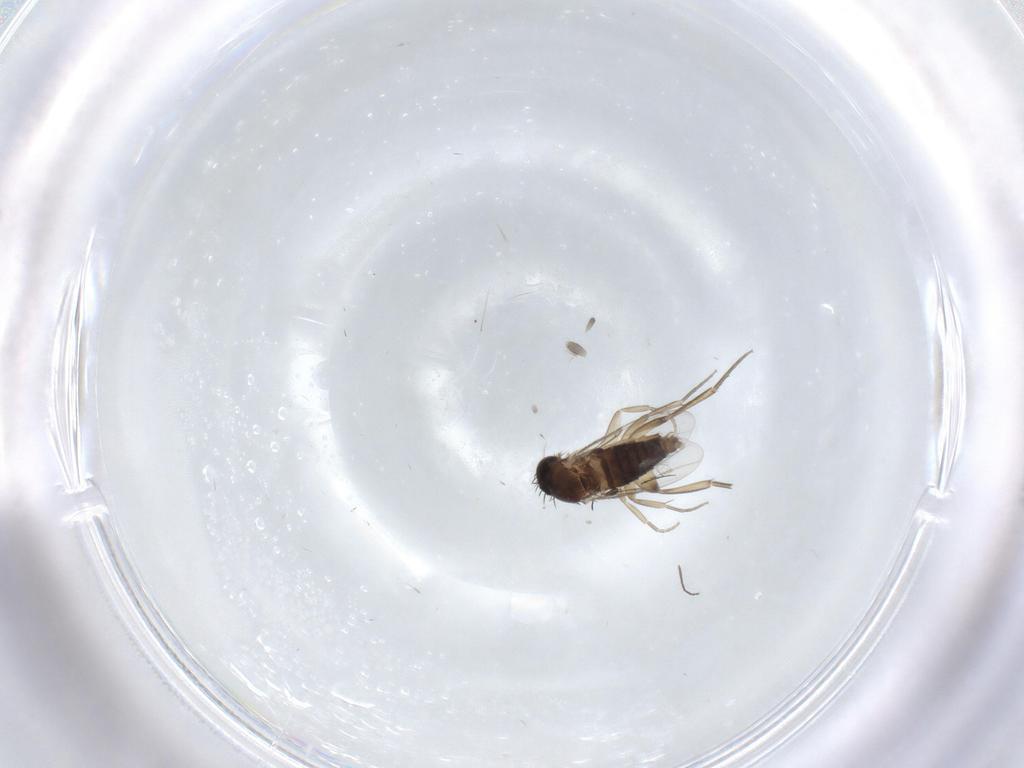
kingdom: Animalia
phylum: Arthropoda
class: Insecta
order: Diptera
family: Phoridae
